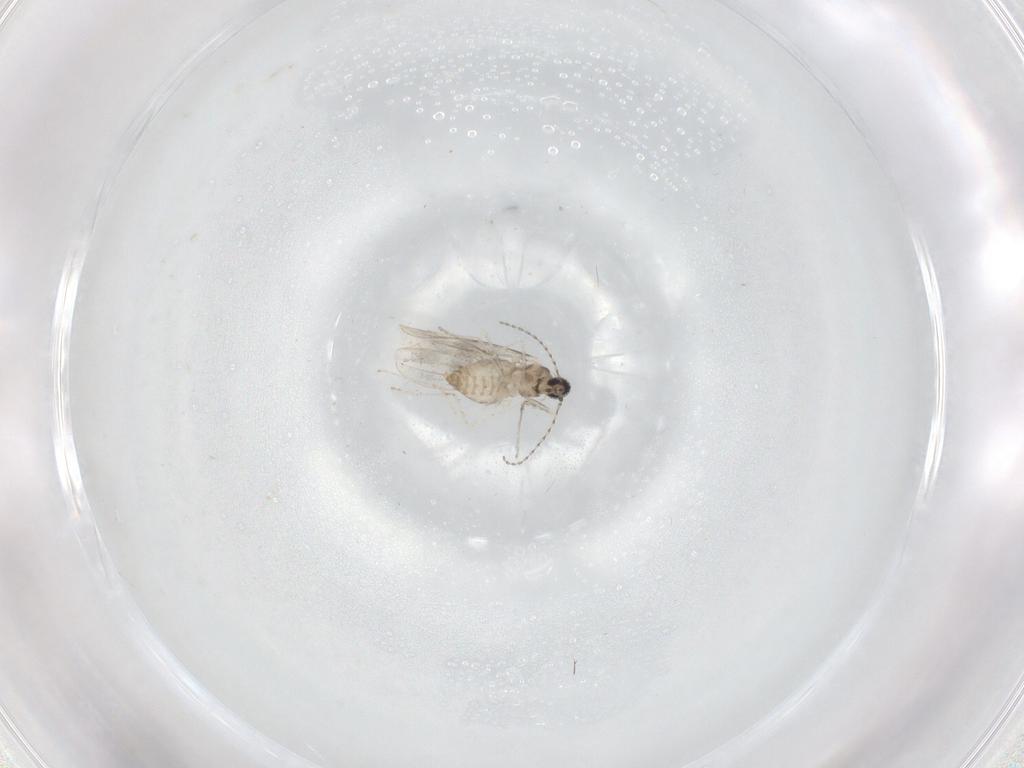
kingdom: Animalia
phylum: Arthropoda
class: Insecta
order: Diptera
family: Cecidomyiidae
